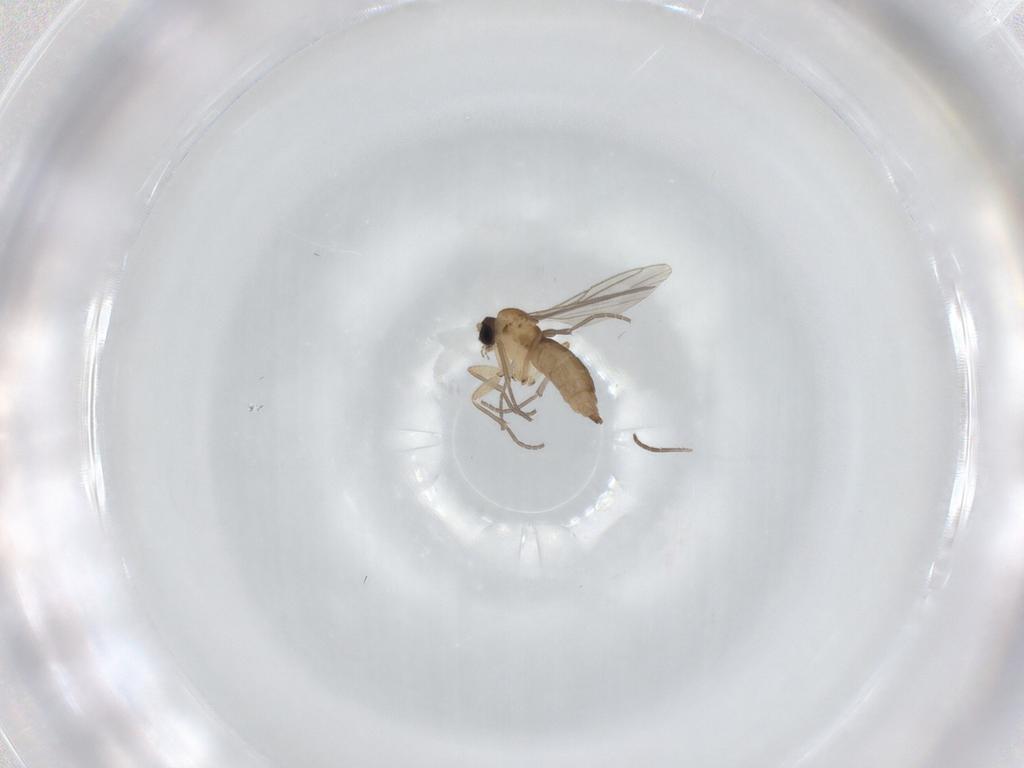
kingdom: Animalia
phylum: Arthropoda
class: Insecta
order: Diptera
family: Sciaridae
